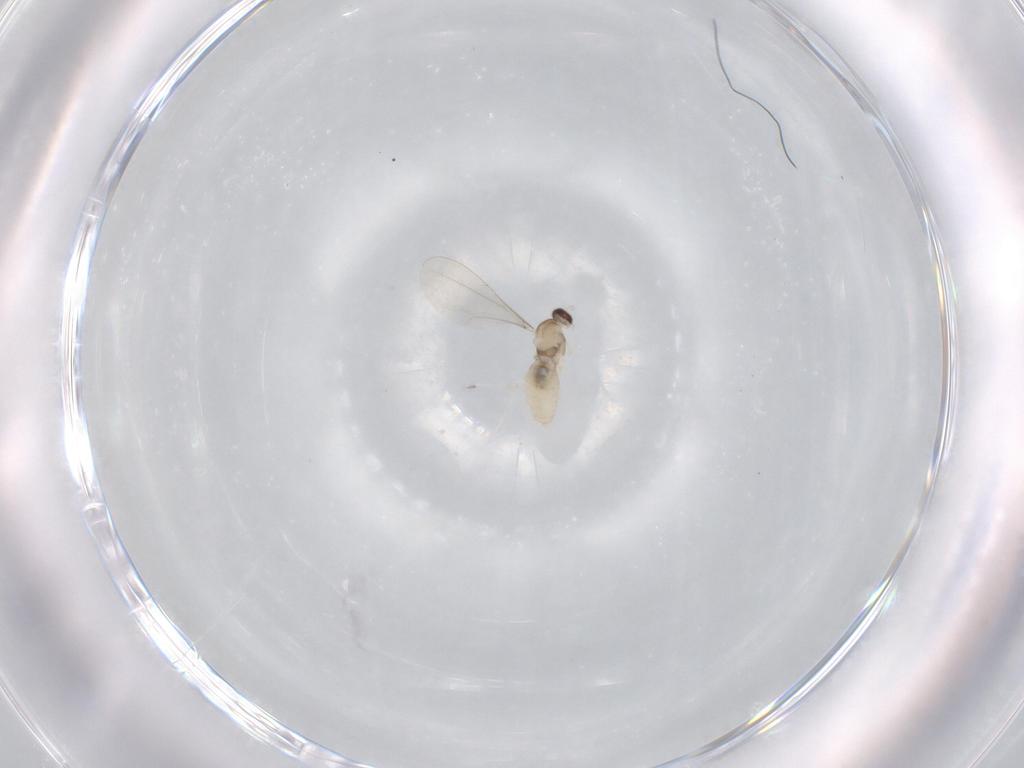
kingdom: Animalia
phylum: Arthropoda
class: Insecta
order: Diptera
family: Cecidomyiidae
